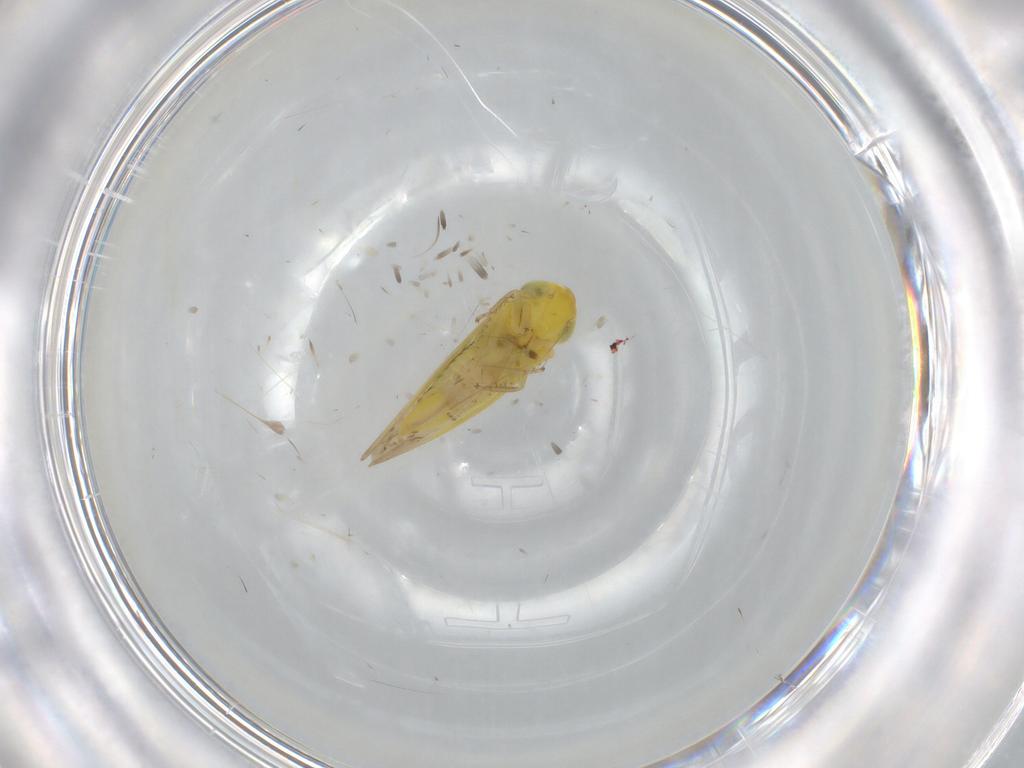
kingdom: Animalia
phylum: Arthropoda
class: Insecta
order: Hemiptera
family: Cicadellidae
